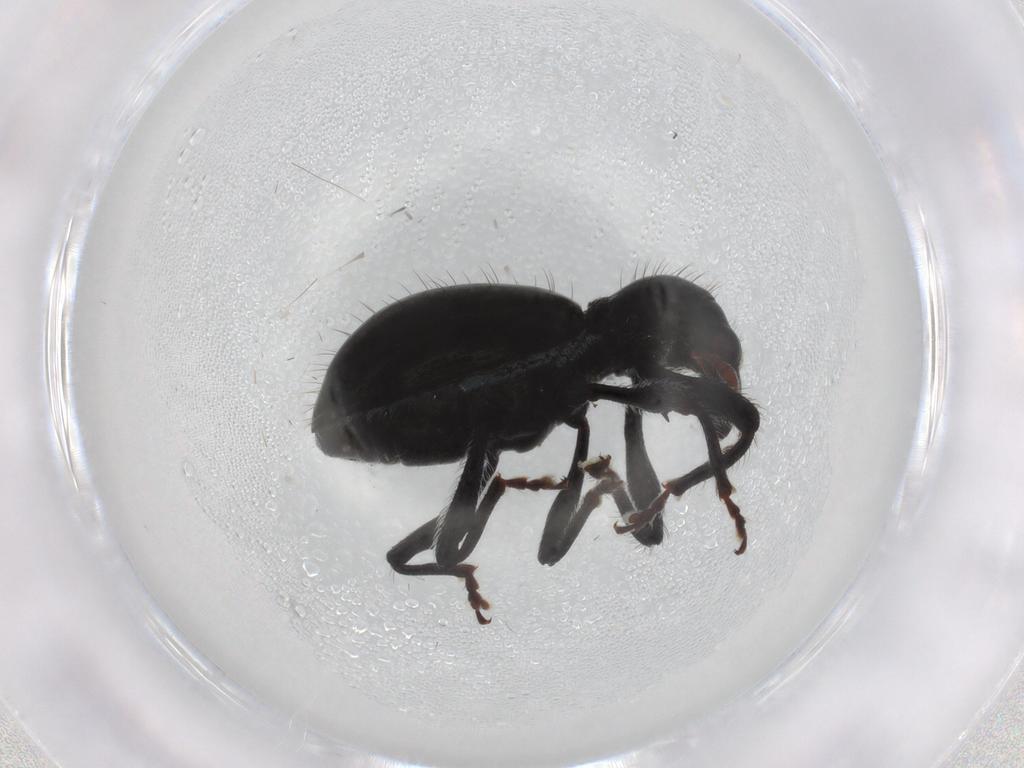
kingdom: Animalia
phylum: Arthropoda
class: Insecta
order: Coleoptera
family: Curculionidae
